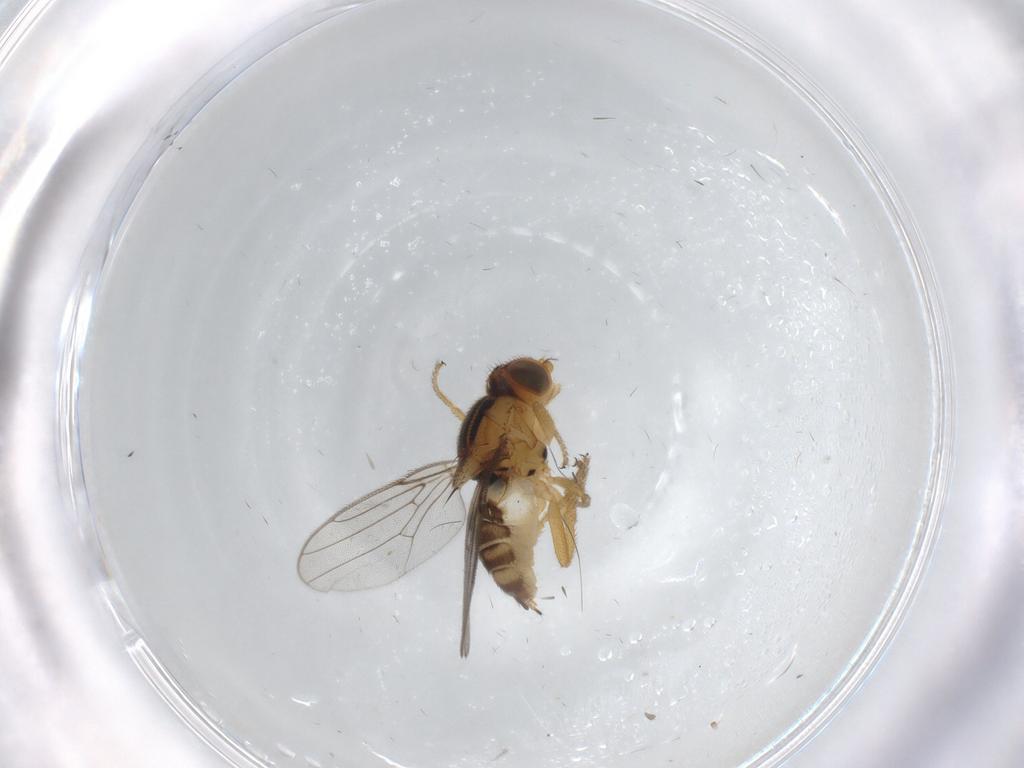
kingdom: Animalia
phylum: Arthropoda
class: Insecta
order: Diptera
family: Chloropidae
